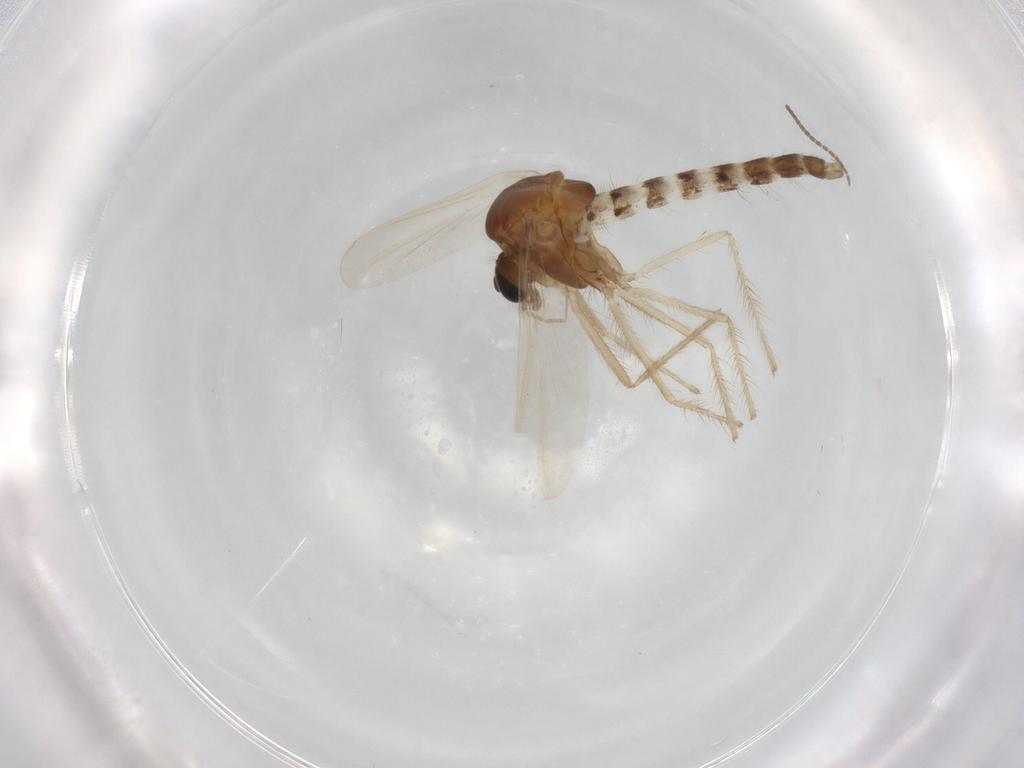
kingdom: Animalia
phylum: Arthropoda
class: Insecta
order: Diptera
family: Chironomidae
